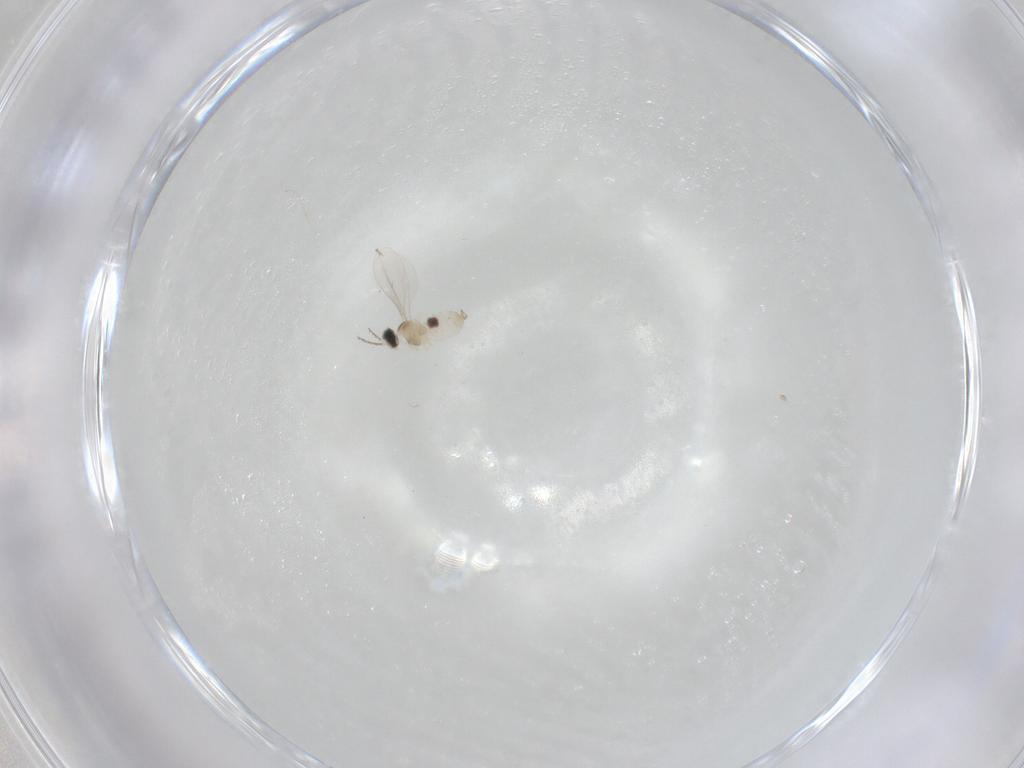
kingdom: Animalia
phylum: Arthropoda
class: Insecta
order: Diptera
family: Cecidomyiidae
